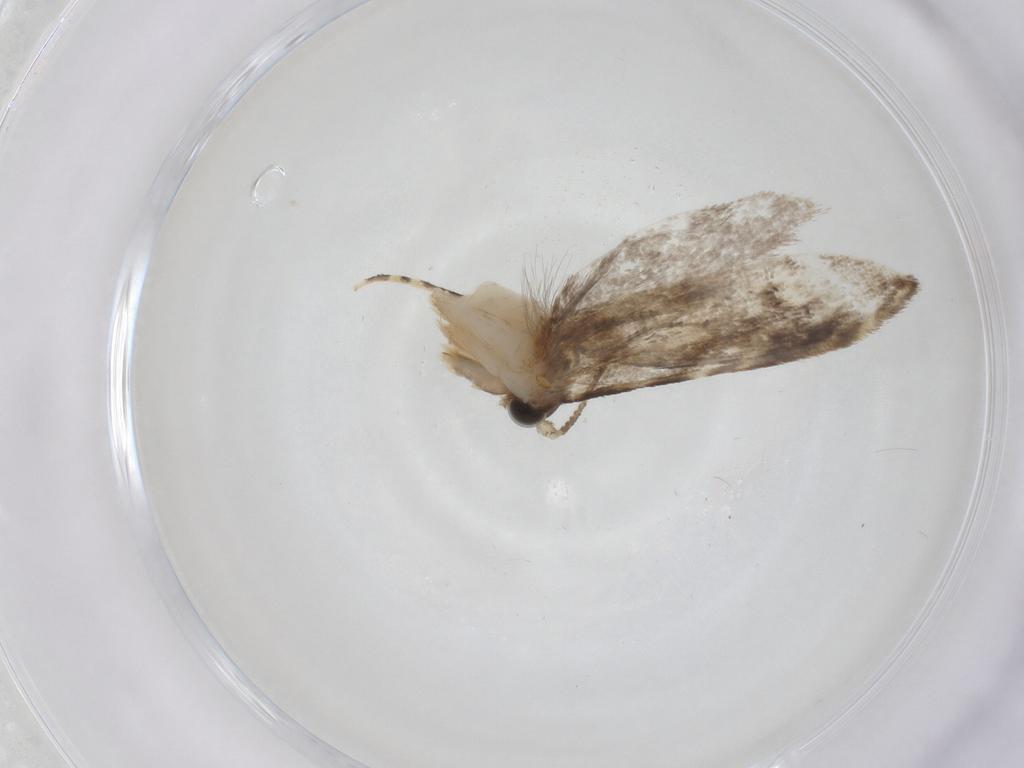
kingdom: Animalia
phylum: Arthropoda
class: Insecta
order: Lepidoptera
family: Tineidae
